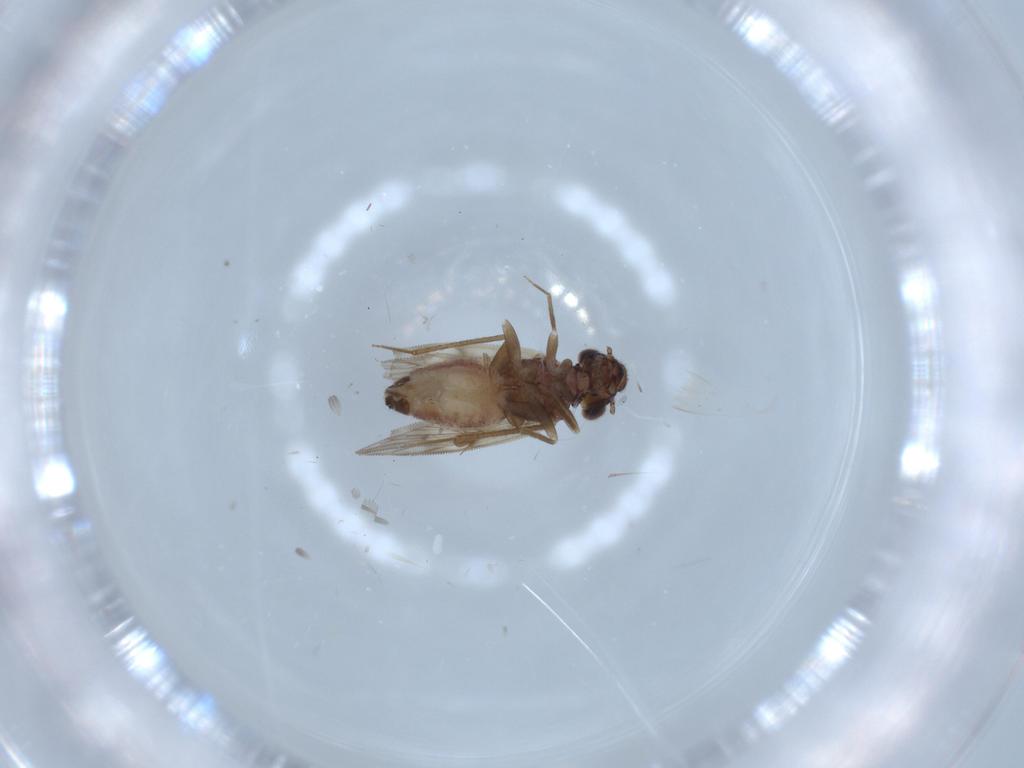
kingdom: Animalia
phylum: Arthropoda
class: Insecta
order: Psocodea
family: Lepidopsocidae
